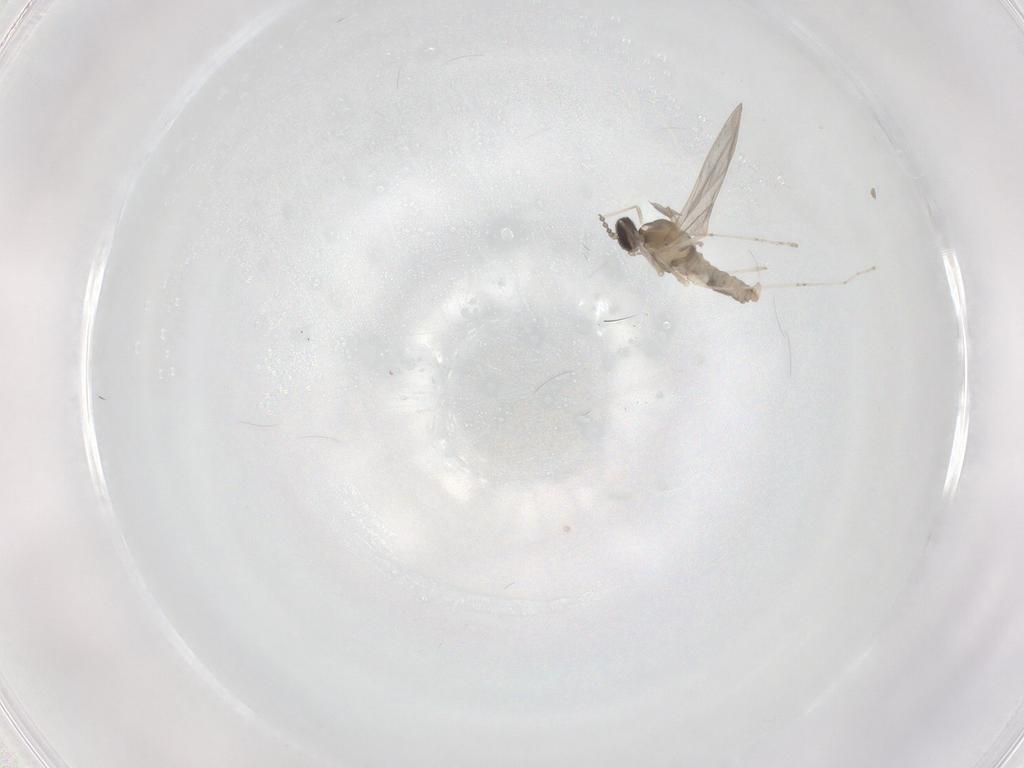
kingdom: Animalia
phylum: Arthropoda
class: Insecta
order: Diptera
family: Cecidomyiidae
